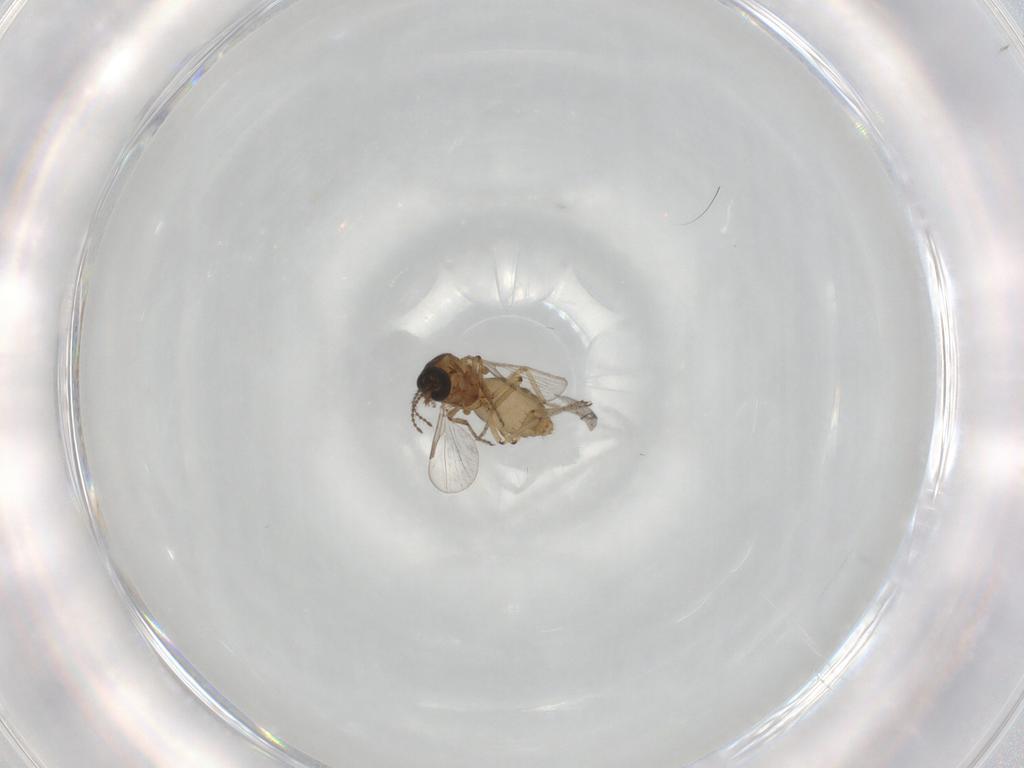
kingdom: Animalia
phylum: Arthropoda
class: Insecta
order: Diptera
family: Ceratopogonidae
